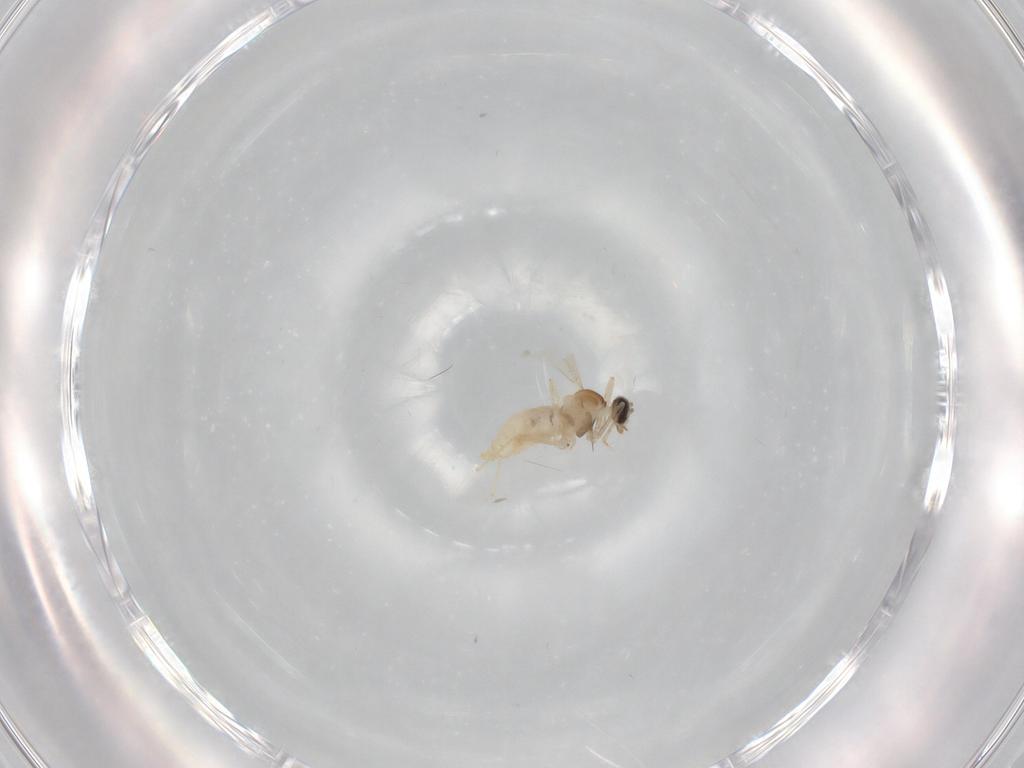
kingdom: Animalia
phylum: Arthropoda
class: Insecta
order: Diptera
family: Cecidomyiidae
